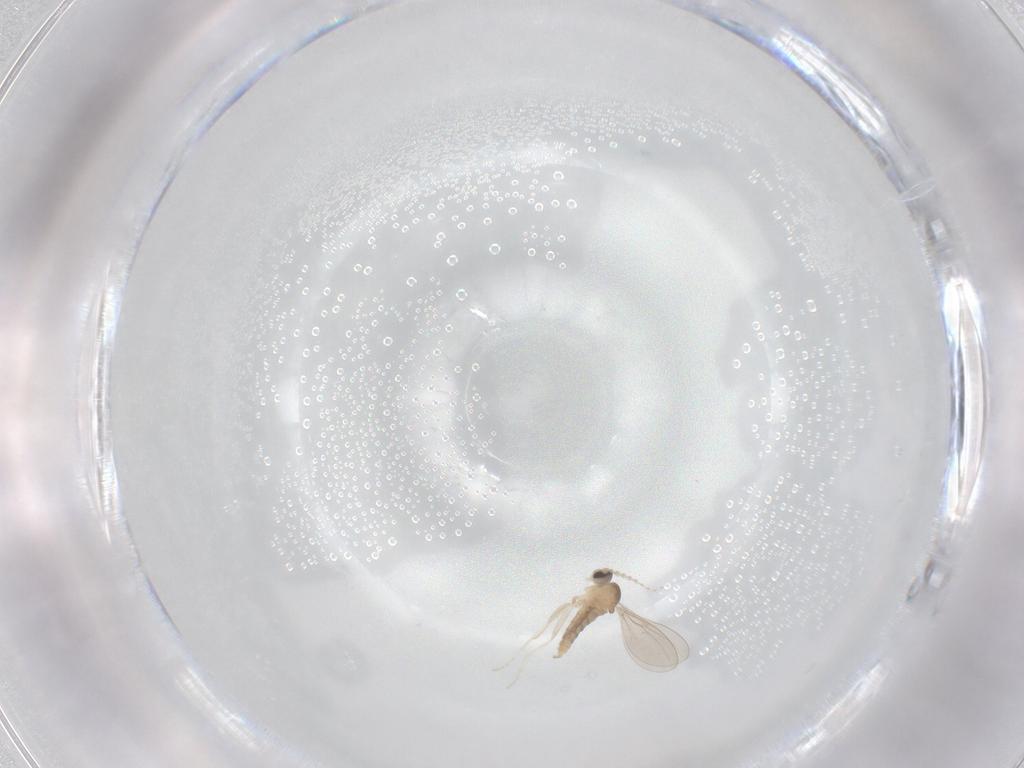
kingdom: Animalia
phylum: Arthropoda
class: Insecta
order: Diptera
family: Cecidomyiidae
